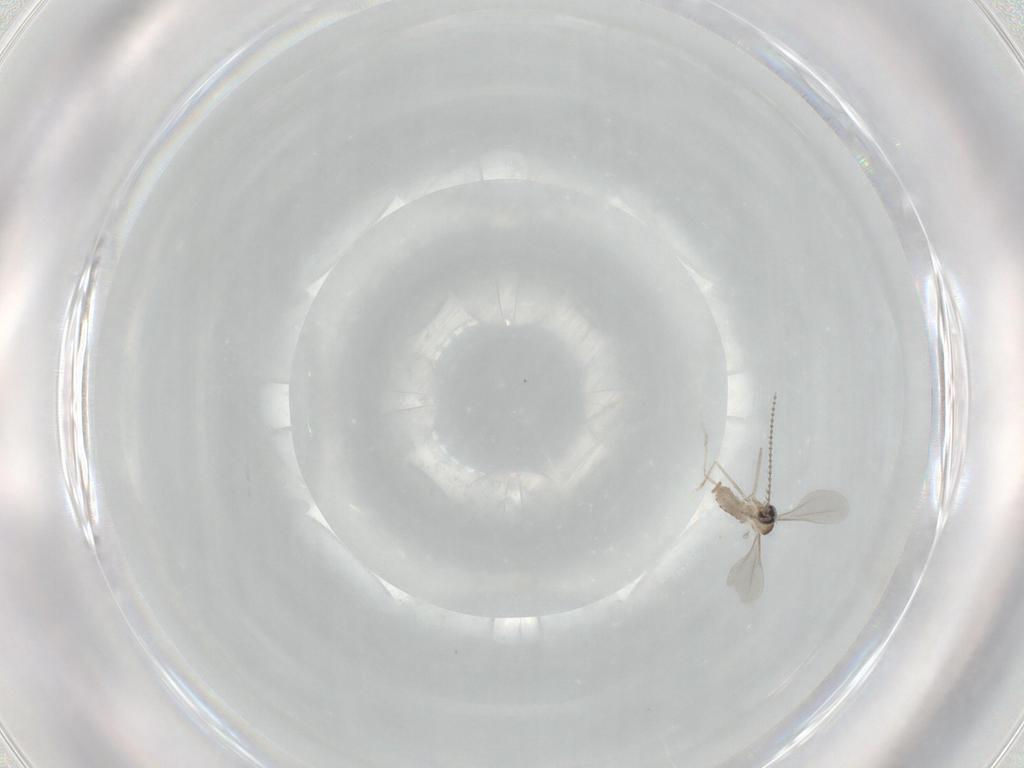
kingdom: Animalia
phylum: Arthropoda
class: Insecta
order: Diptera
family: Cecidomyiidae
